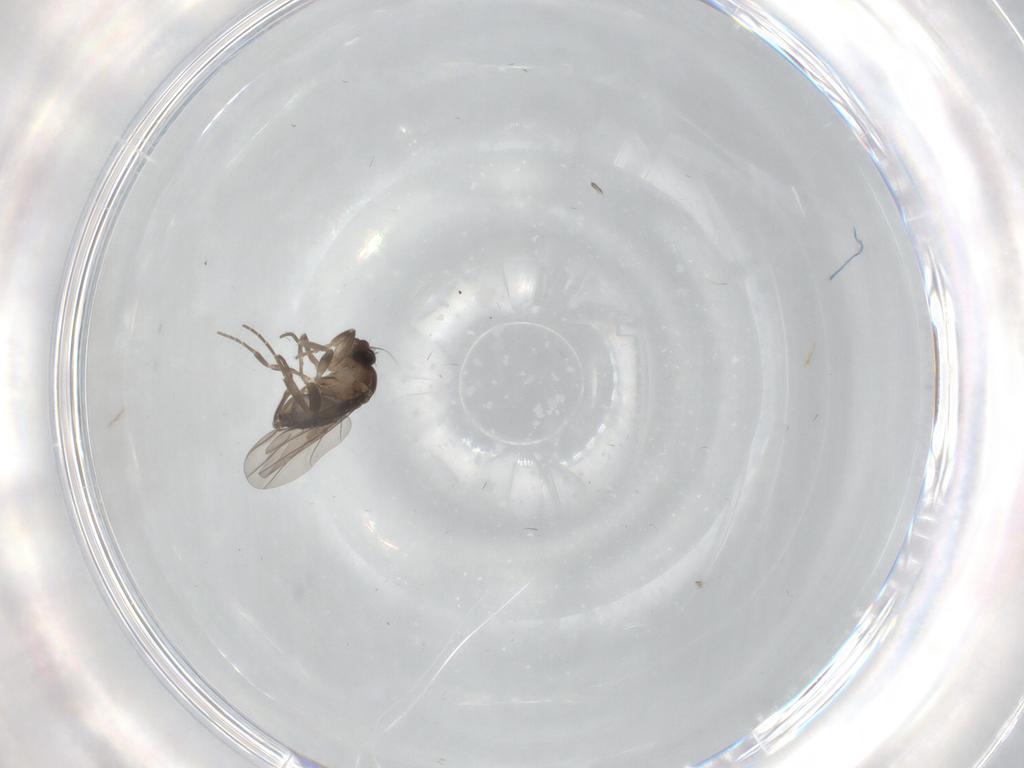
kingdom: Animalia
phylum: Arthropoda
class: Insecta
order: Diptera
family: Phoridae
